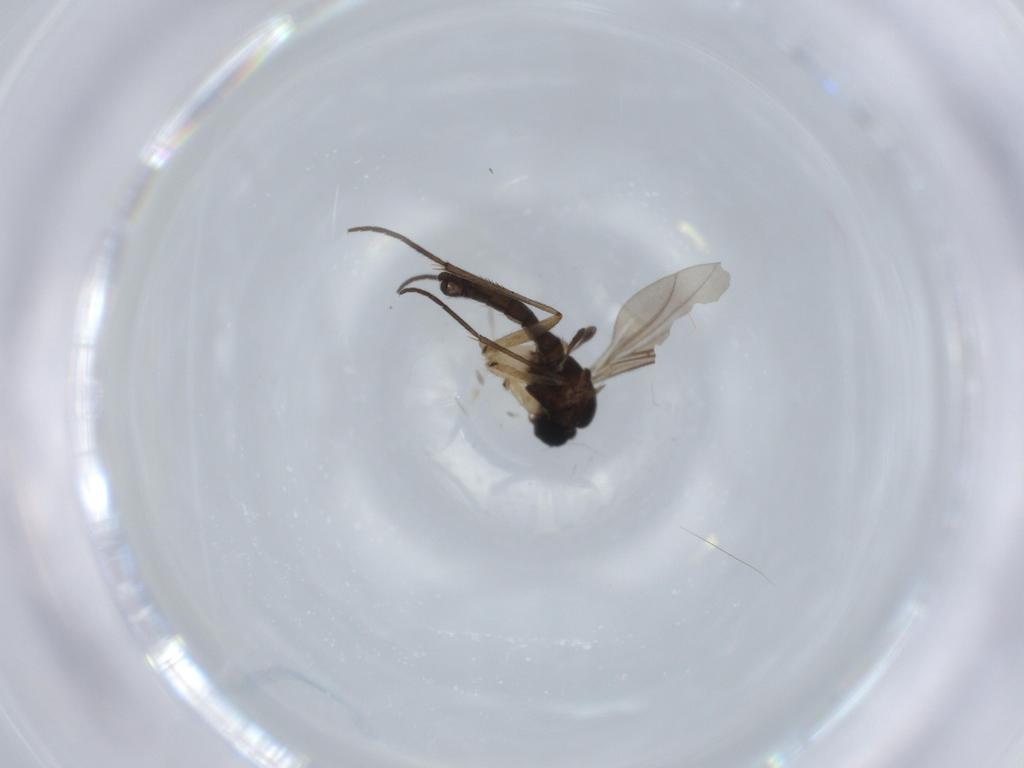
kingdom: Animalia
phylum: Arthropoda
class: Insecta
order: Diptera
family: Sciaridae
